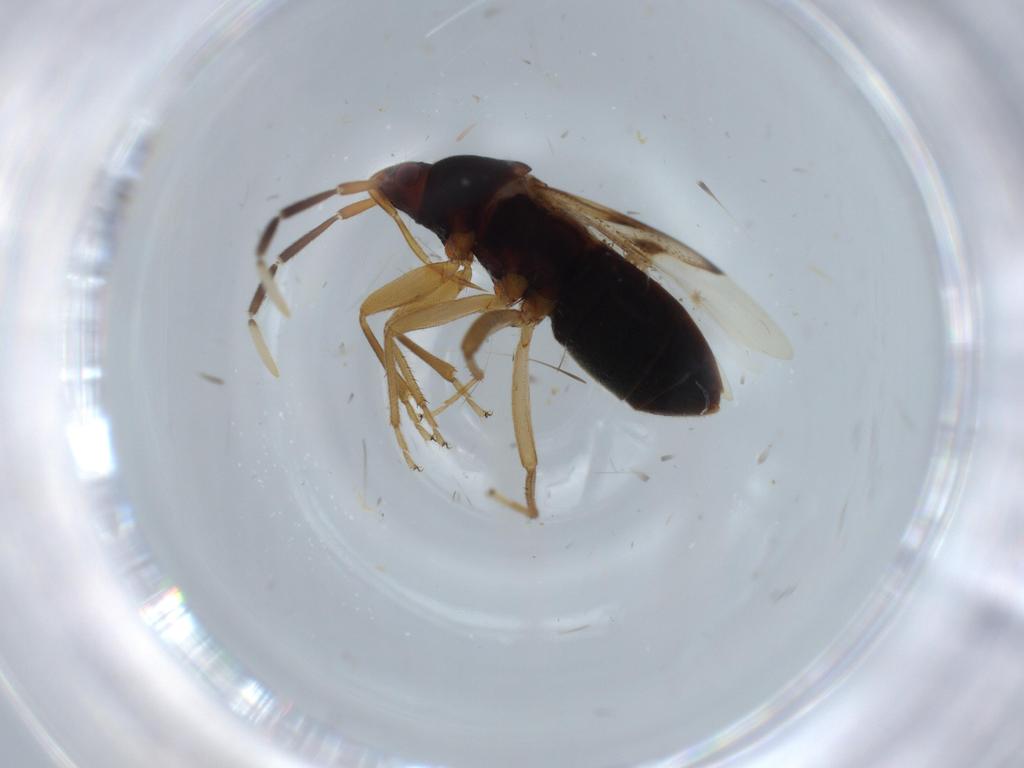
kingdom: Animalia
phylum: Arthropoda
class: Insecta
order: Hemiptera
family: Rhyparochromidae
